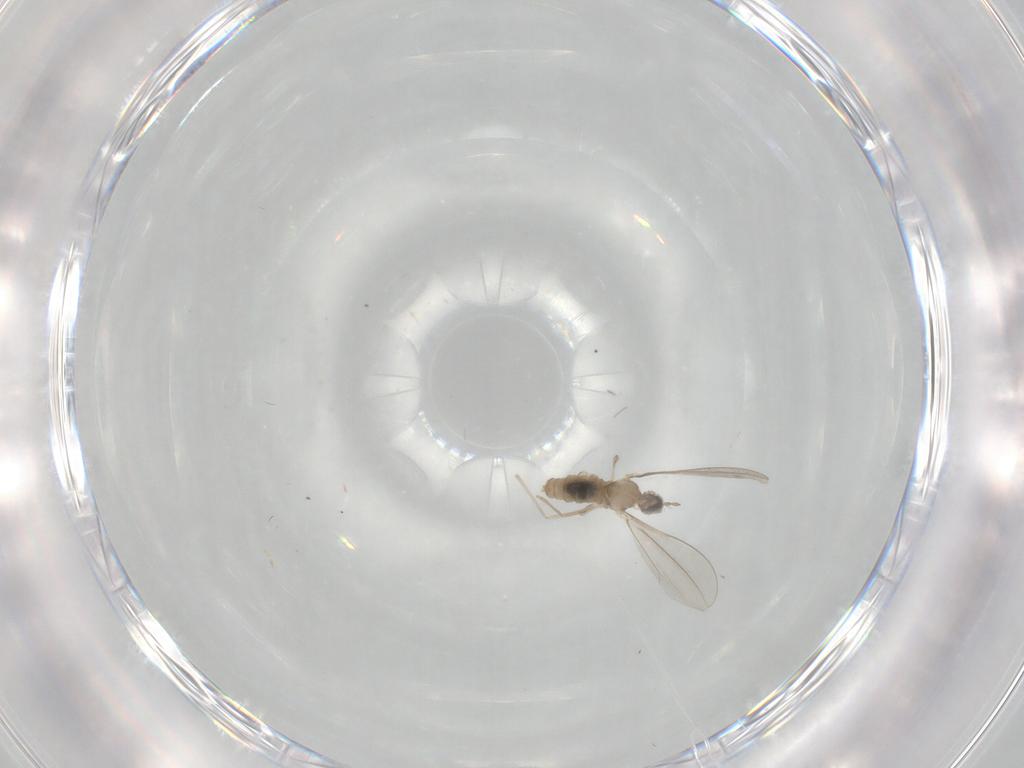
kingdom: Animalia
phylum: Arthropoda
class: Insecta
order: Diptera
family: Cecidomyiidae
